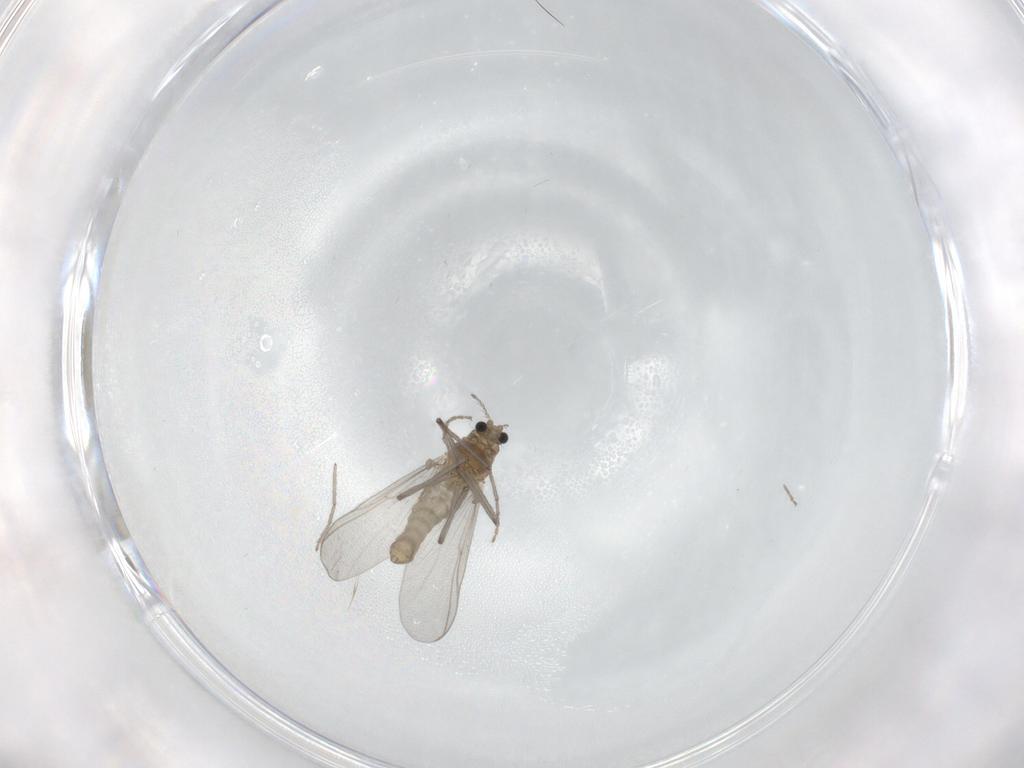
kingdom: Animalia
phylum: Arthropoda
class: Insecta
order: Diptera
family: Chironomidae
